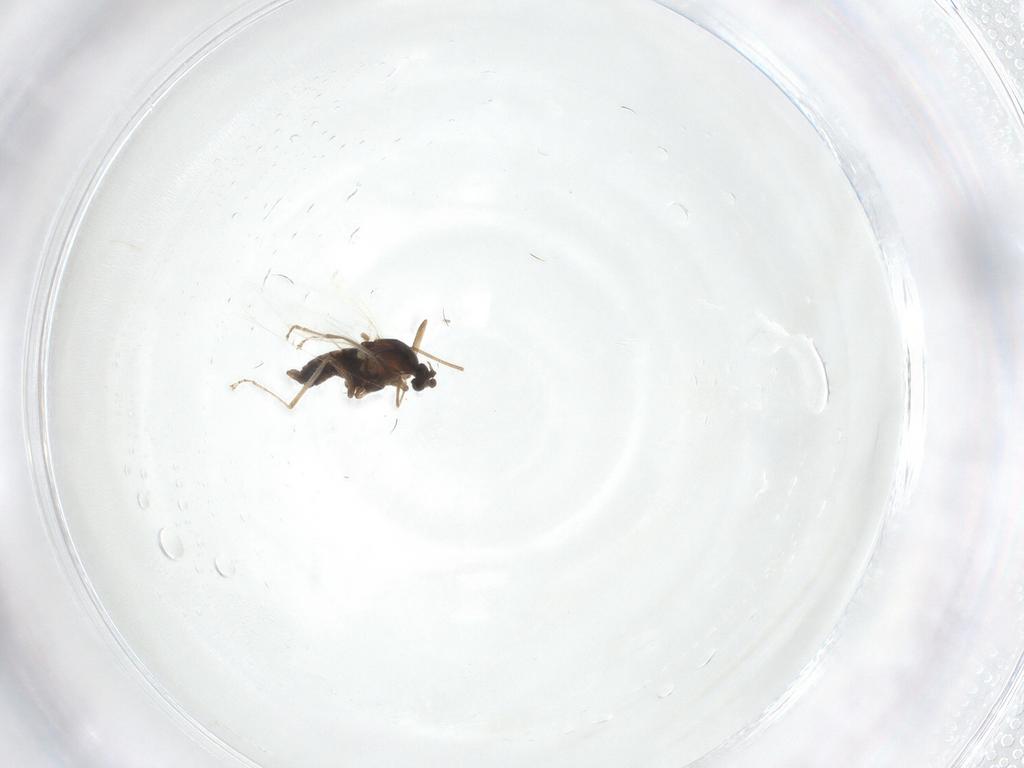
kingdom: Animalia
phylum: Arthropoda
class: Insecta
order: Diptera
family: Cecidomyiidae
